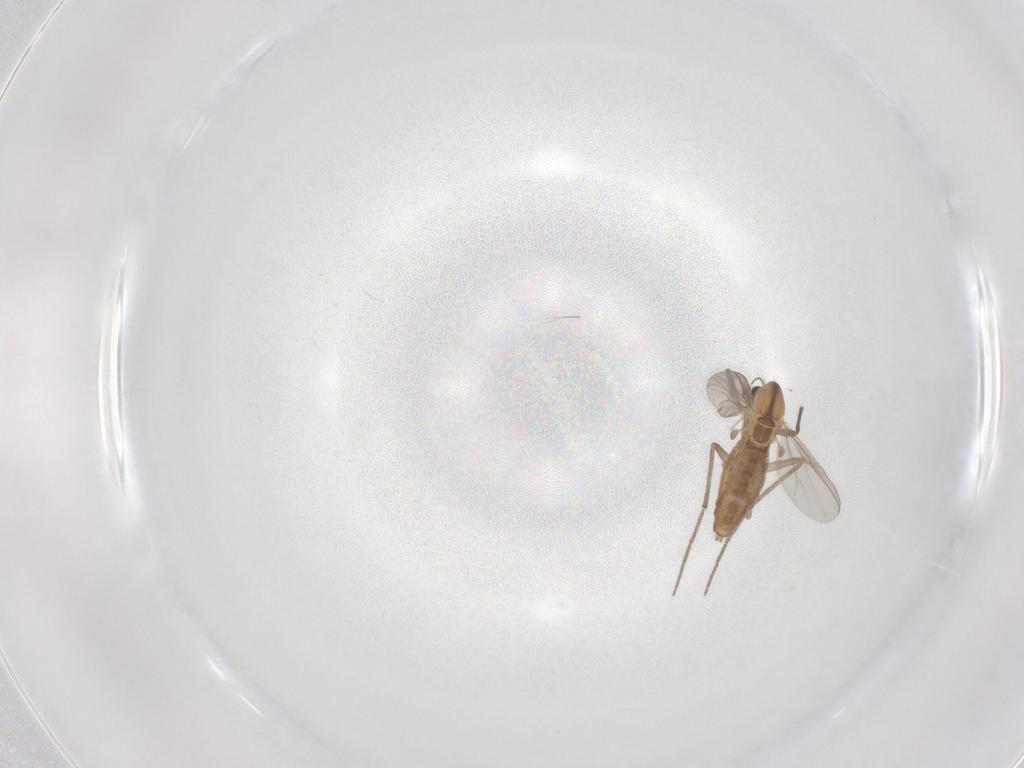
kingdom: Animalia
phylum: Arthropoda
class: Insecta
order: Diptera
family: Chironomidae
